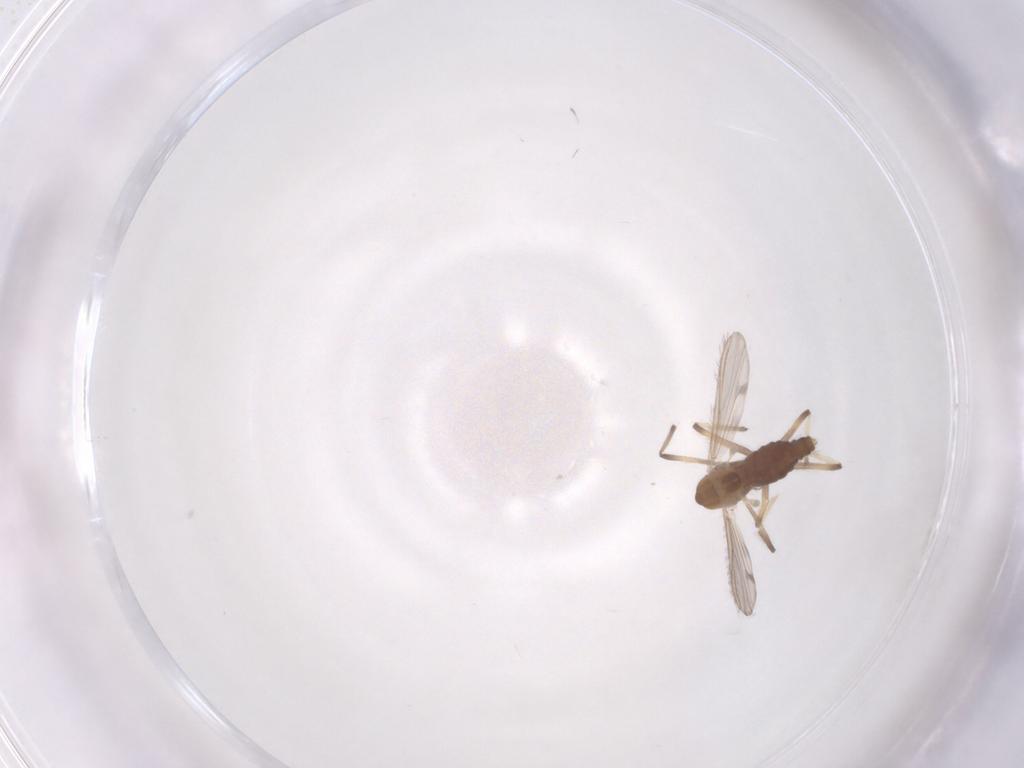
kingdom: Animalia
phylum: Arthropoda
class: Insecta
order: Diptera
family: Chironomidae
